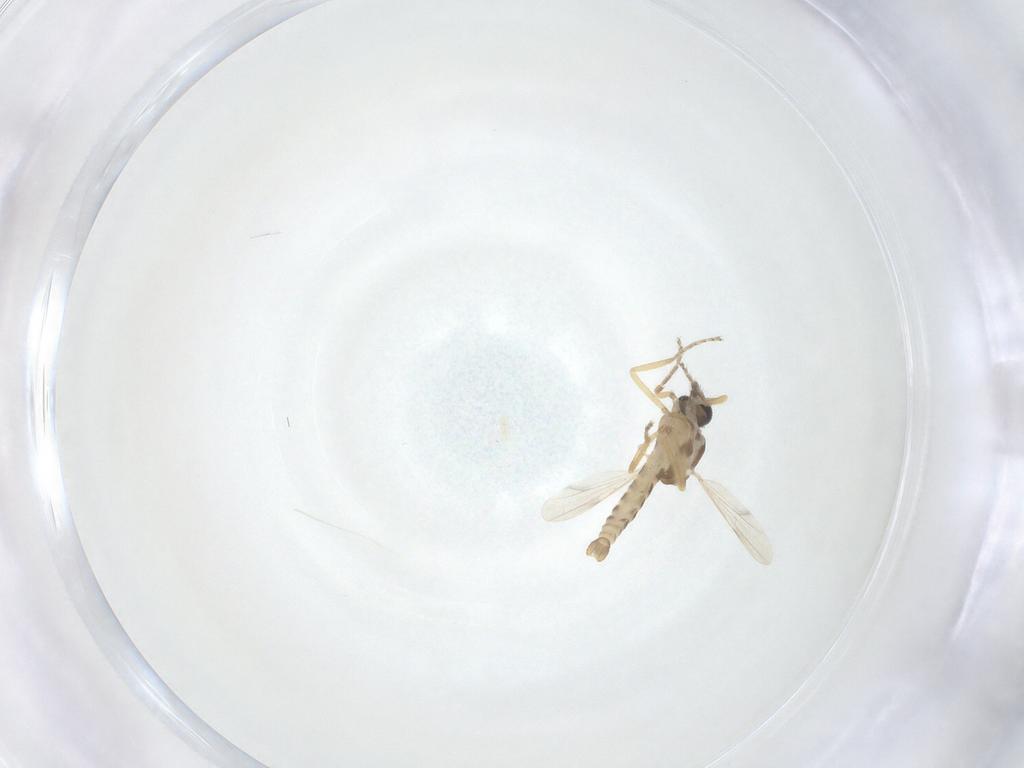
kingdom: Animalia
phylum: Arthropoda
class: Insecta
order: Diptera
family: Ceratopogonidae
